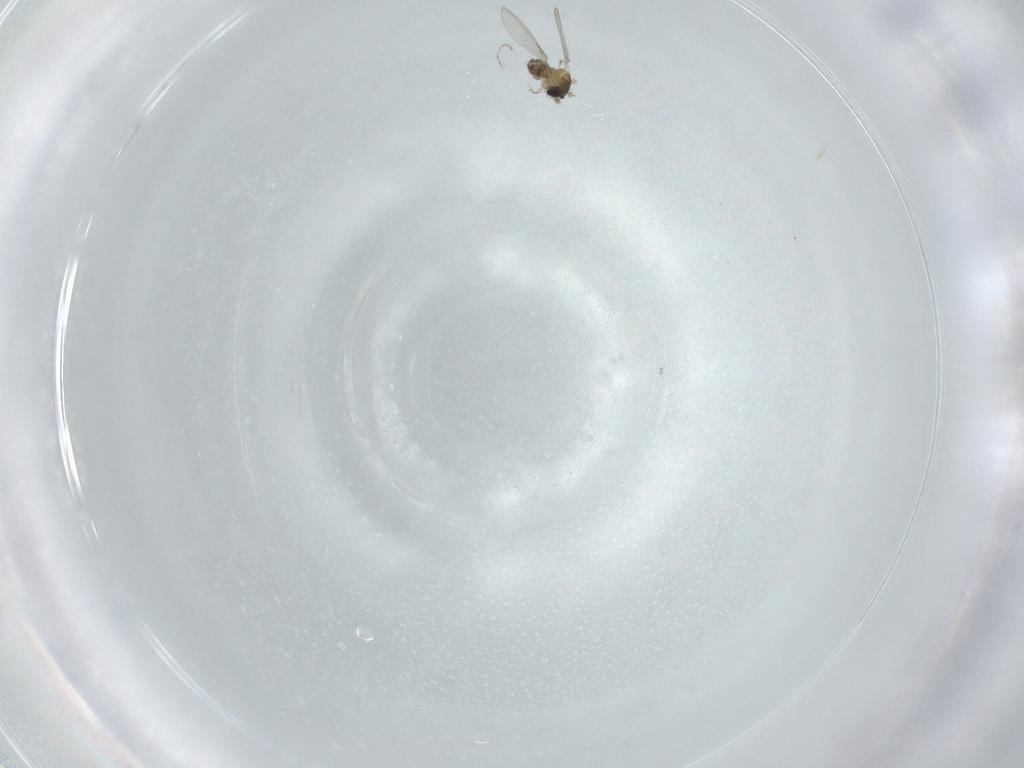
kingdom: Animalia
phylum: Arthropoda
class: Insecta
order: Diptera
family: Cecidomyiidae
